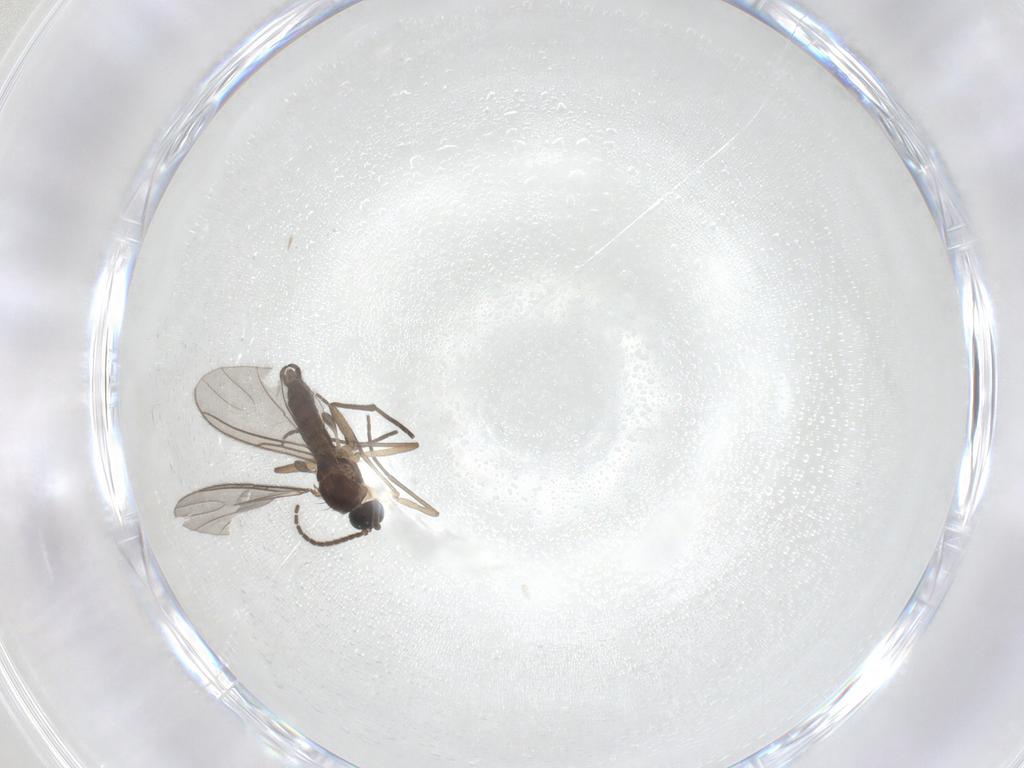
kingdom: Animalia
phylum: Arthropoda
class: Insecta
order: Diptera
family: Sciaridae
